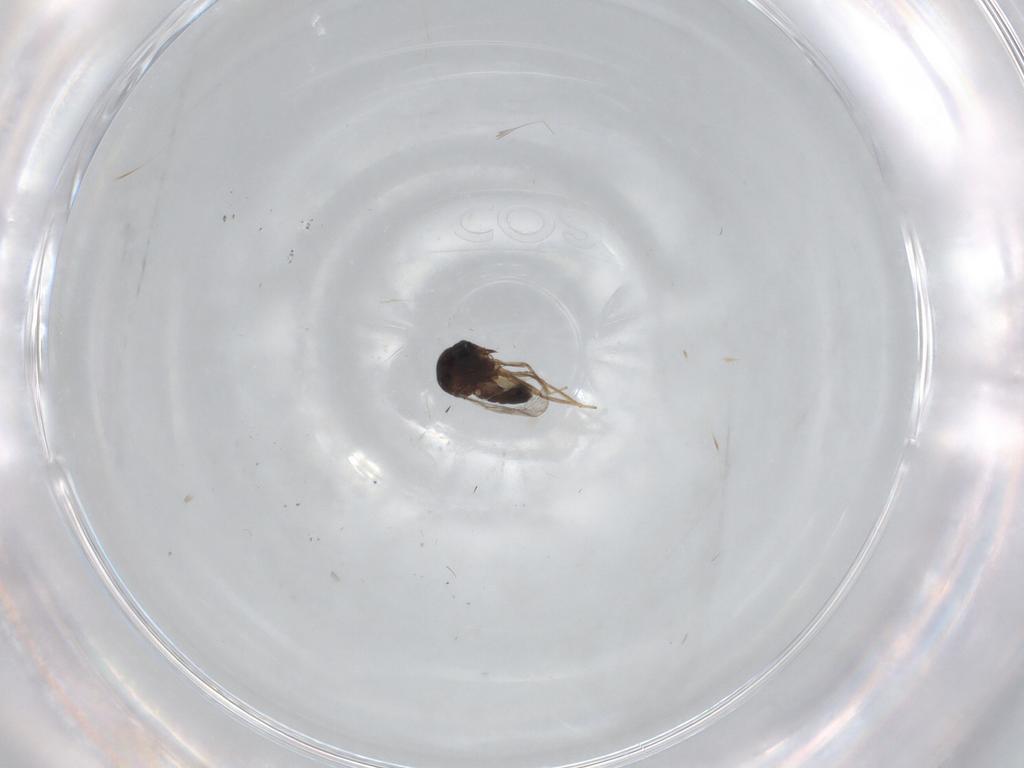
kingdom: Animalia
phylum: Arthropoda
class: Insecta
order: Diptera
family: Ceratopogonidae
